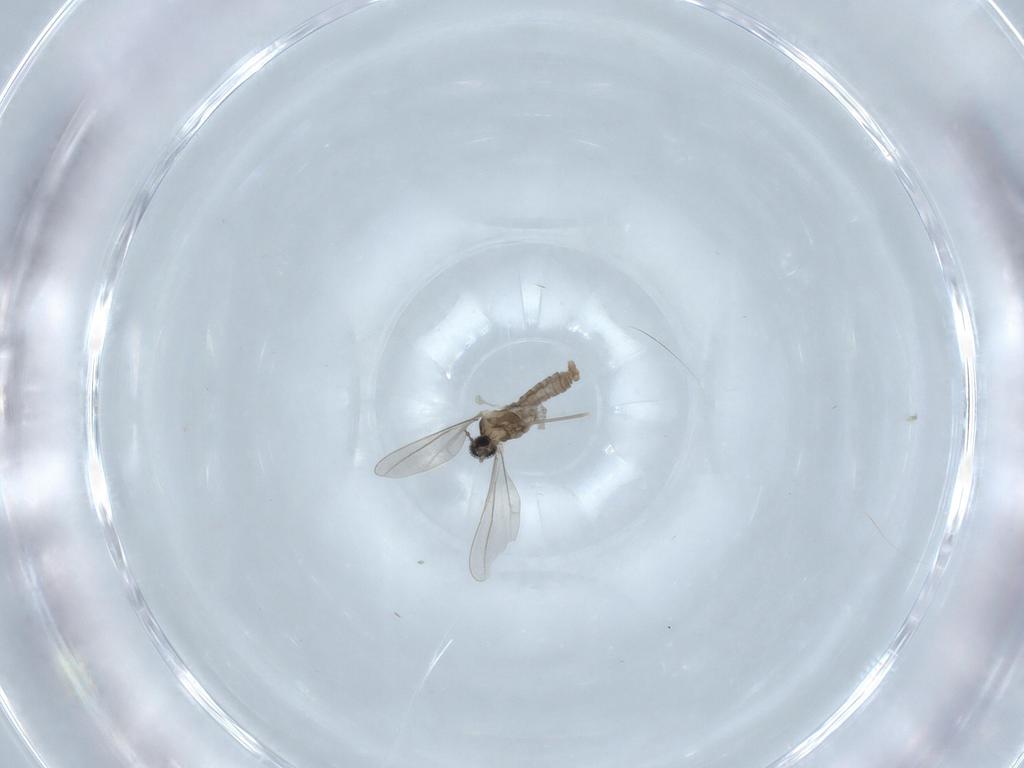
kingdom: Animalia
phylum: Arthropoda
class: Insecta
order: Diptera
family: Cecidomyiidae
